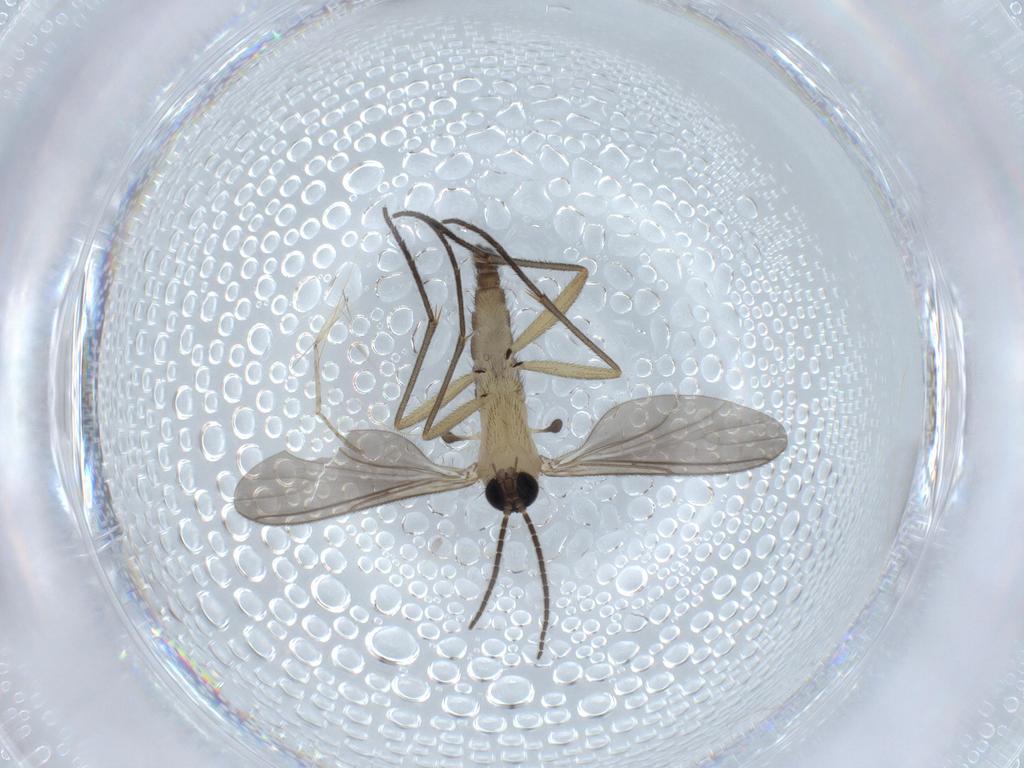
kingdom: Animalia
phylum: Arthropoda
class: Insecta
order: Diptera
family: Sciaridae
